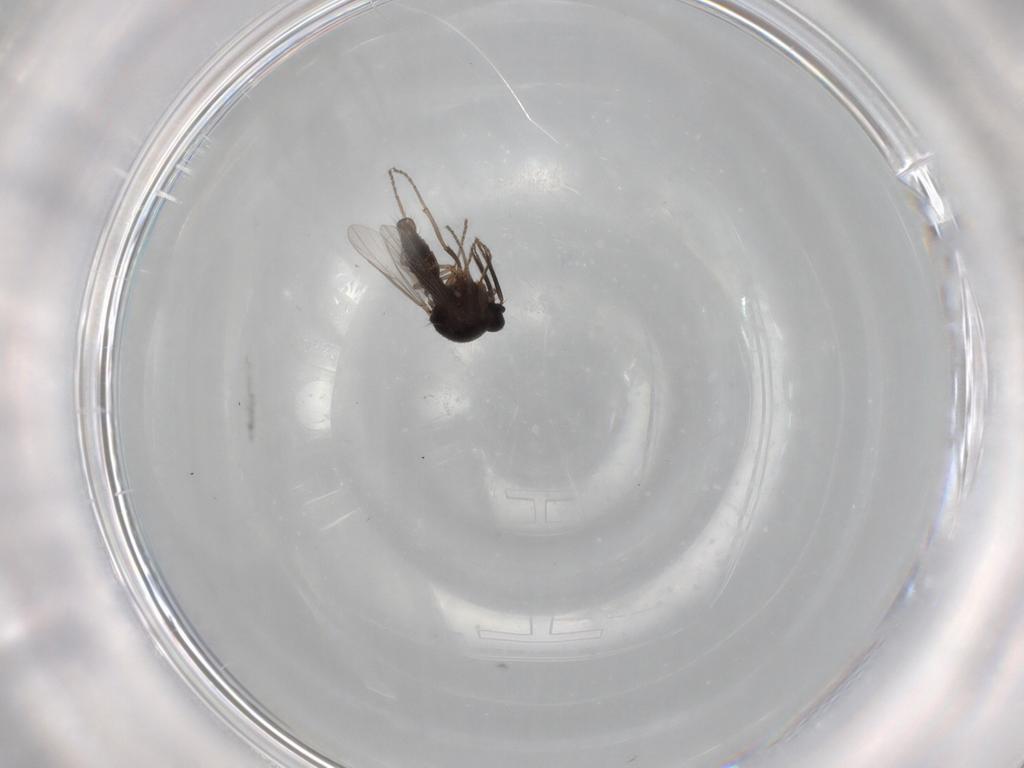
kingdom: Animalia
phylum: Arthropoda
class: Insecta
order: Diptera
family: Ceratopogonidae
